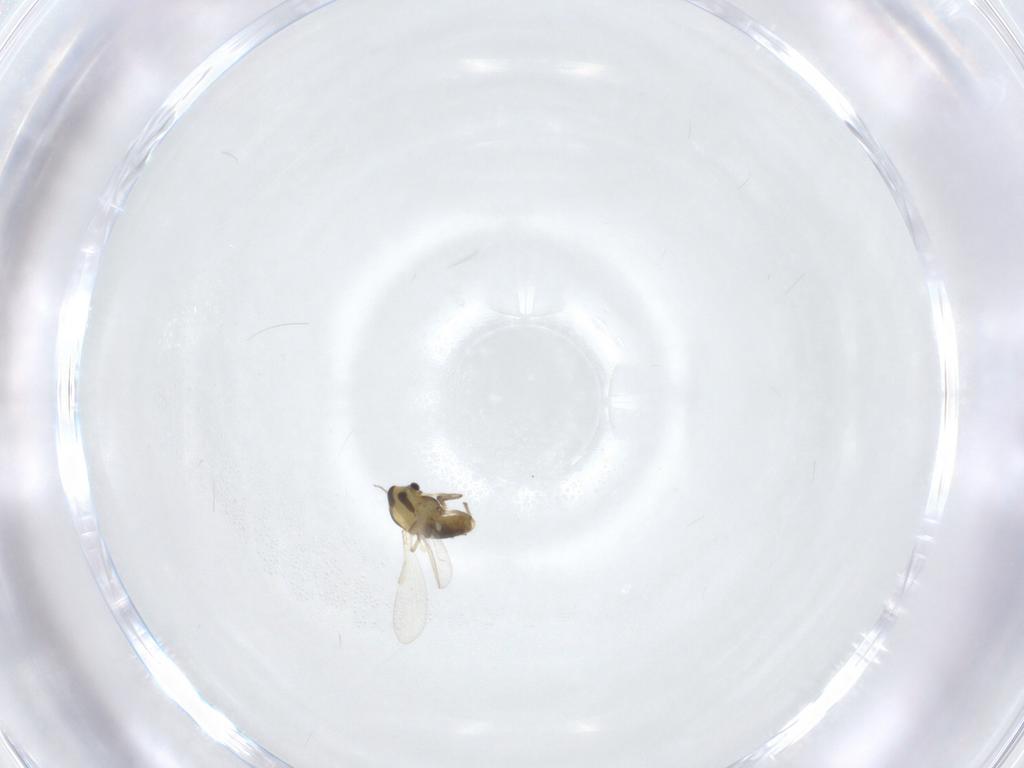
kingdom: Animalia
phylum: Arthropoda
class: Insecta
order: Diptera
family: Chironomidae
